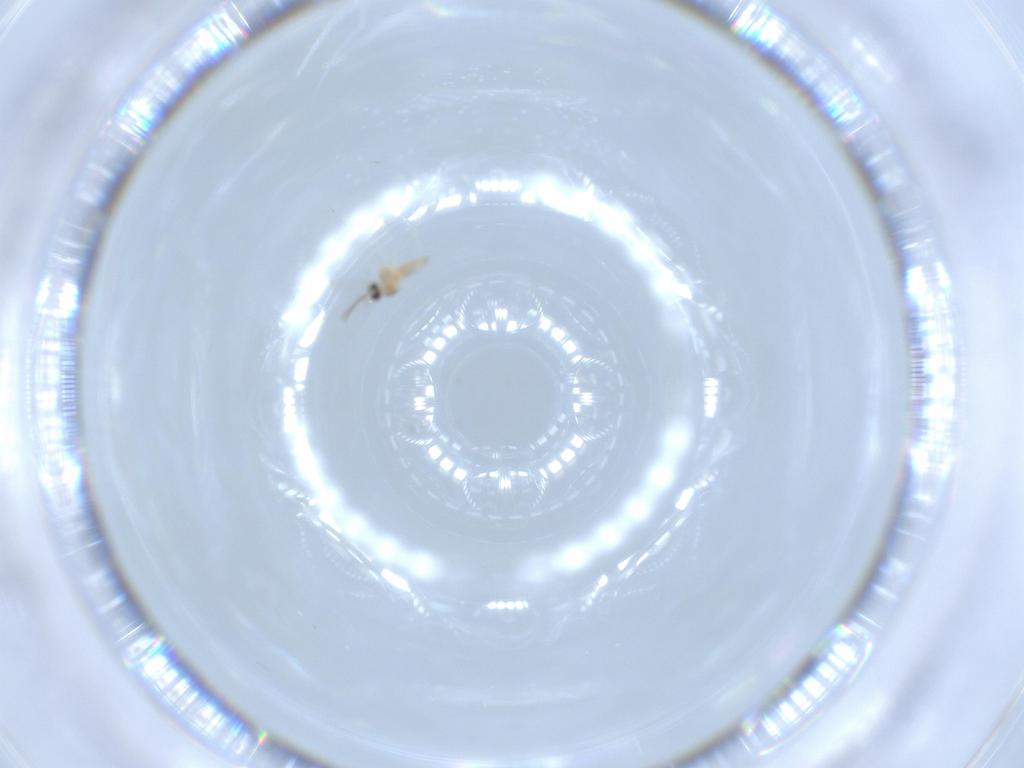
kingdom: Animalia
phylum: Arthropoda
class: Insecta
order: Diptera
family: Cecidomyiidae
